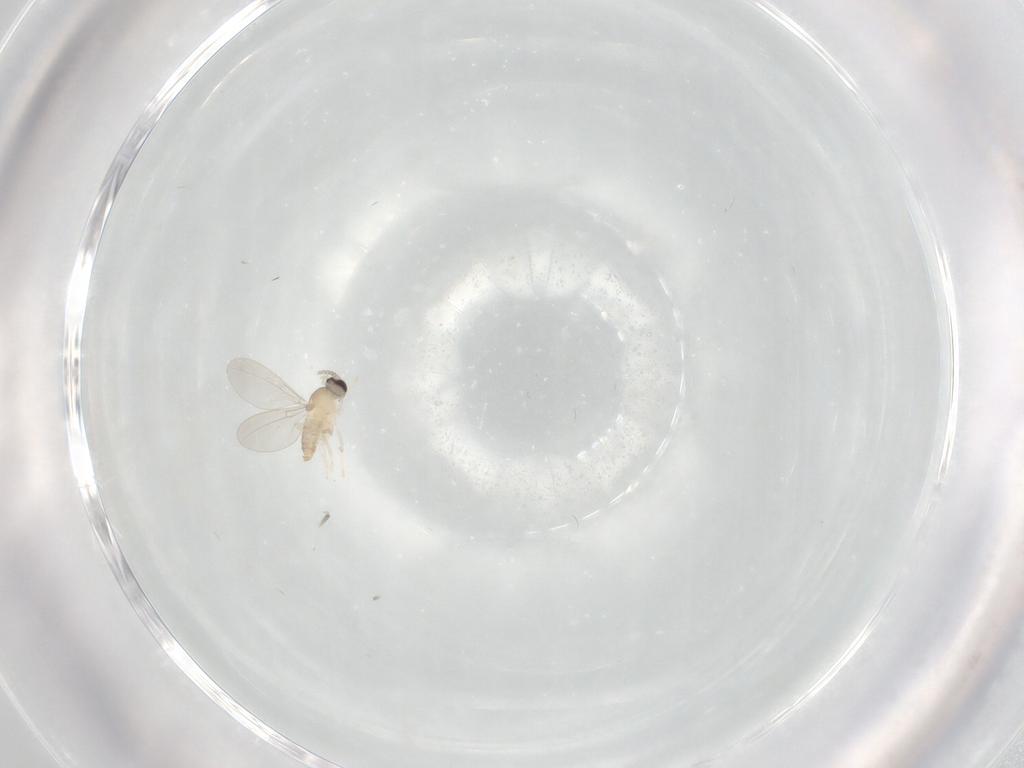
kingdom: Animalia
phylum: Arthropoda
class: Insecta
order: Diptera
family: Cecidomyiidae
